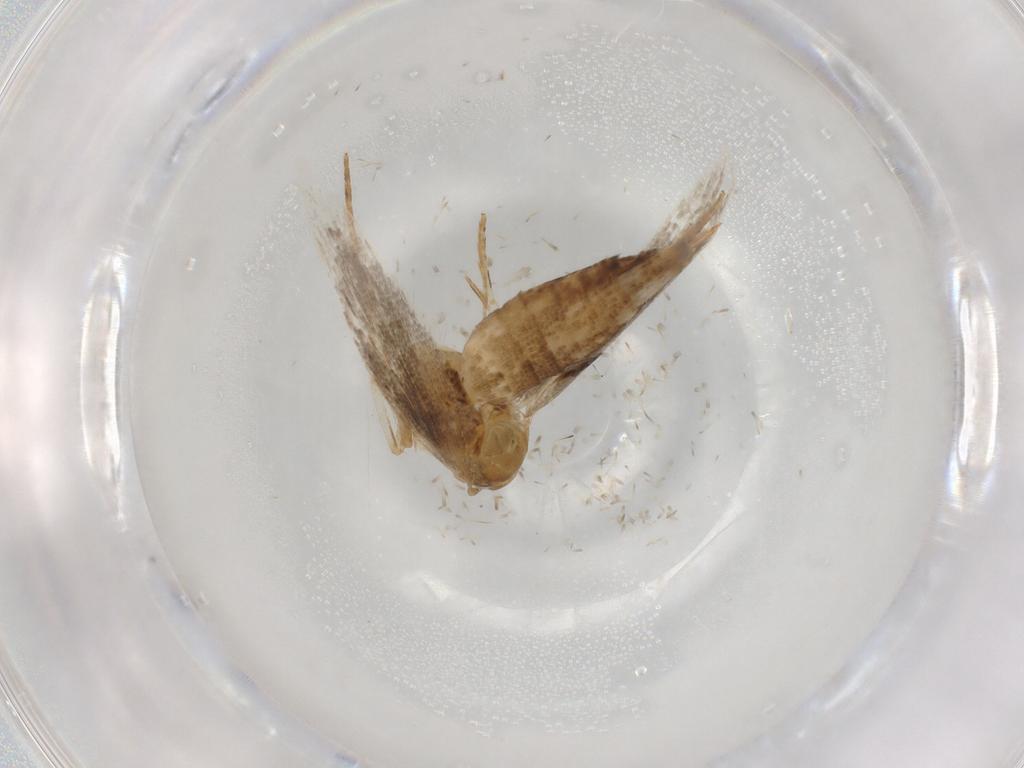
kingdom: Animalia
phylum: Arthropoda
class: Insecta
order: Lepidoptera
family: Cosmopterigidae
